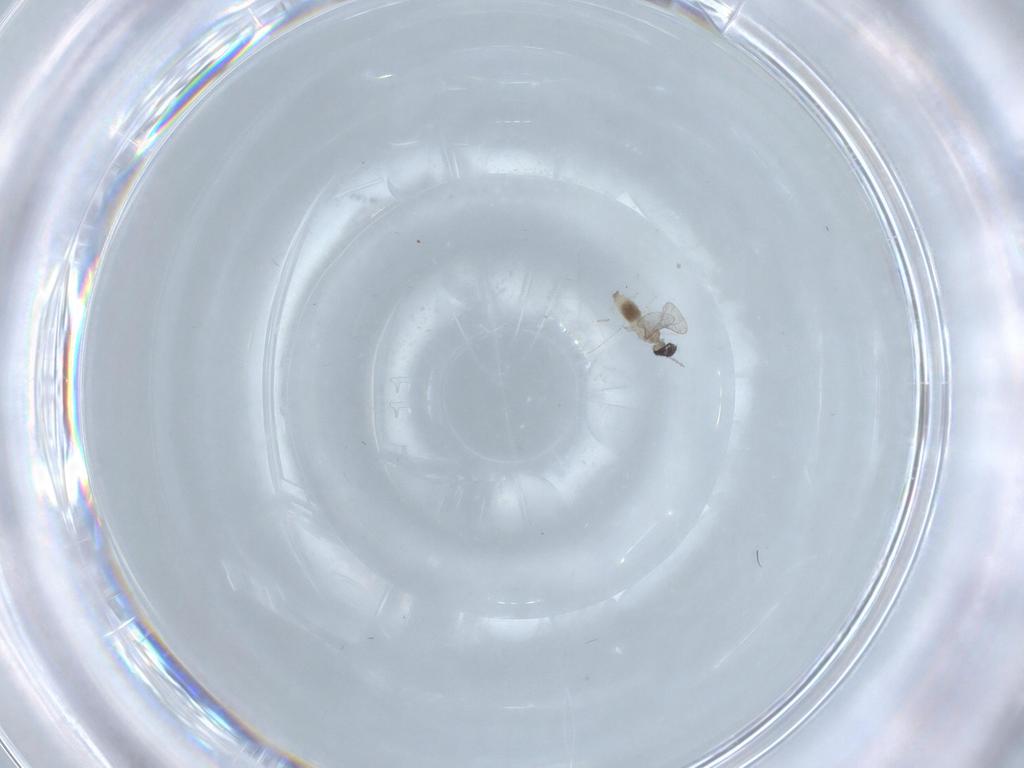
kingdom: Animalia
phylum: Arthropoda
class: Insecta
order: Diptera
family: Cecidomyiidae
